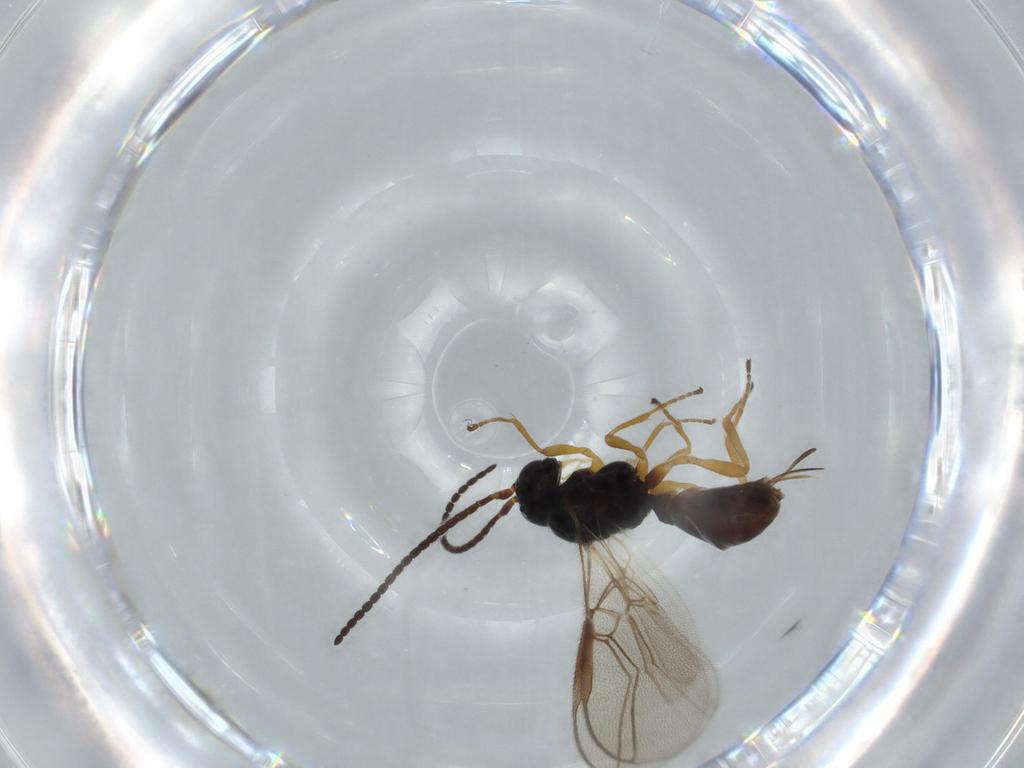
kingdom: Animalia
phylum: Arthropoda
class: Insecta
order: Hymenoptera
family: Braconidae
